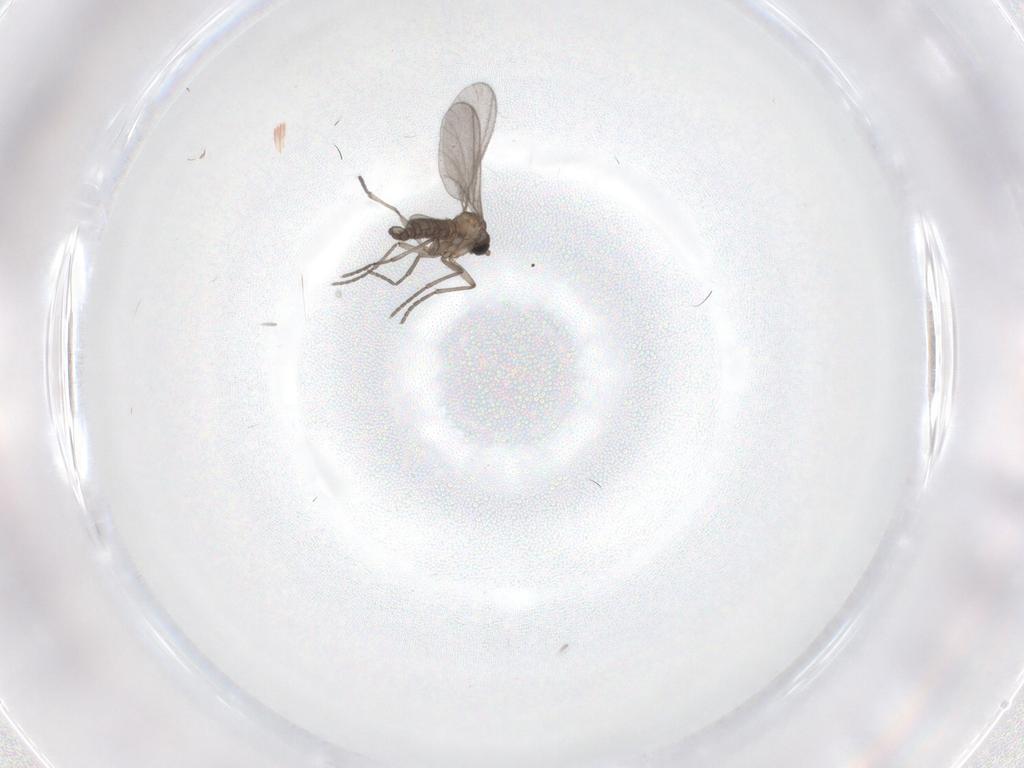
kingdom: Animalia
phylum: Arthropoda
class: Insecta
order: Diptera
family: Sciaridae
